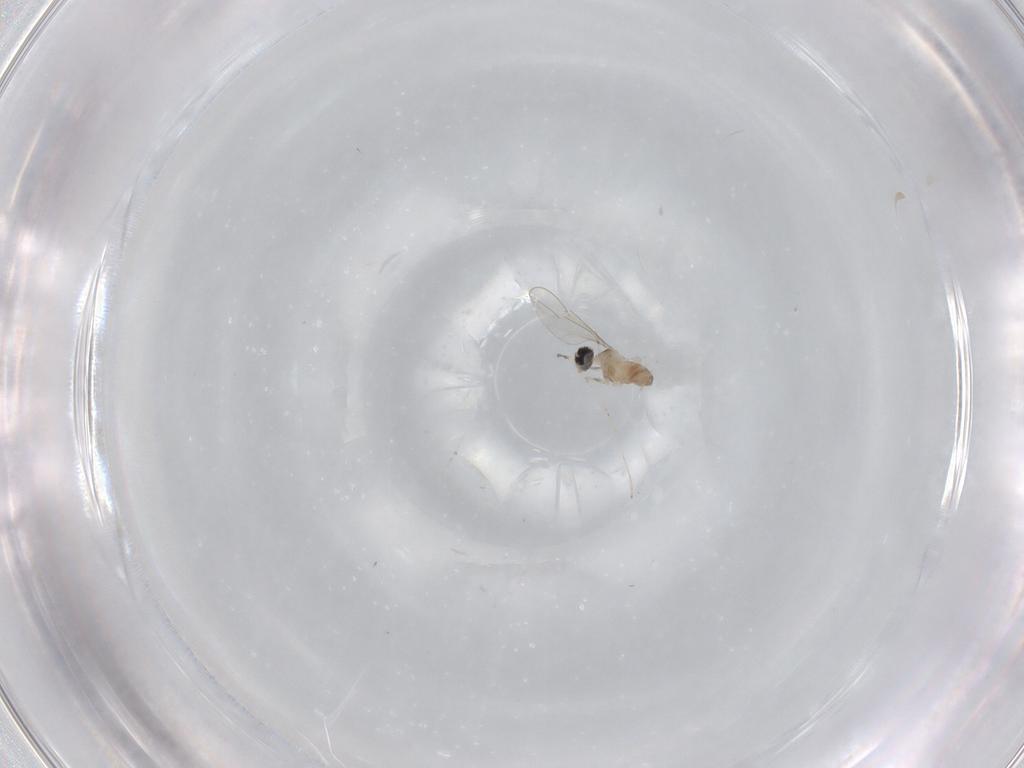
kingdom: Animalia
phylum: Arthropoda
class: Insecta
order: Diptera
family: Cecidomyiidae
